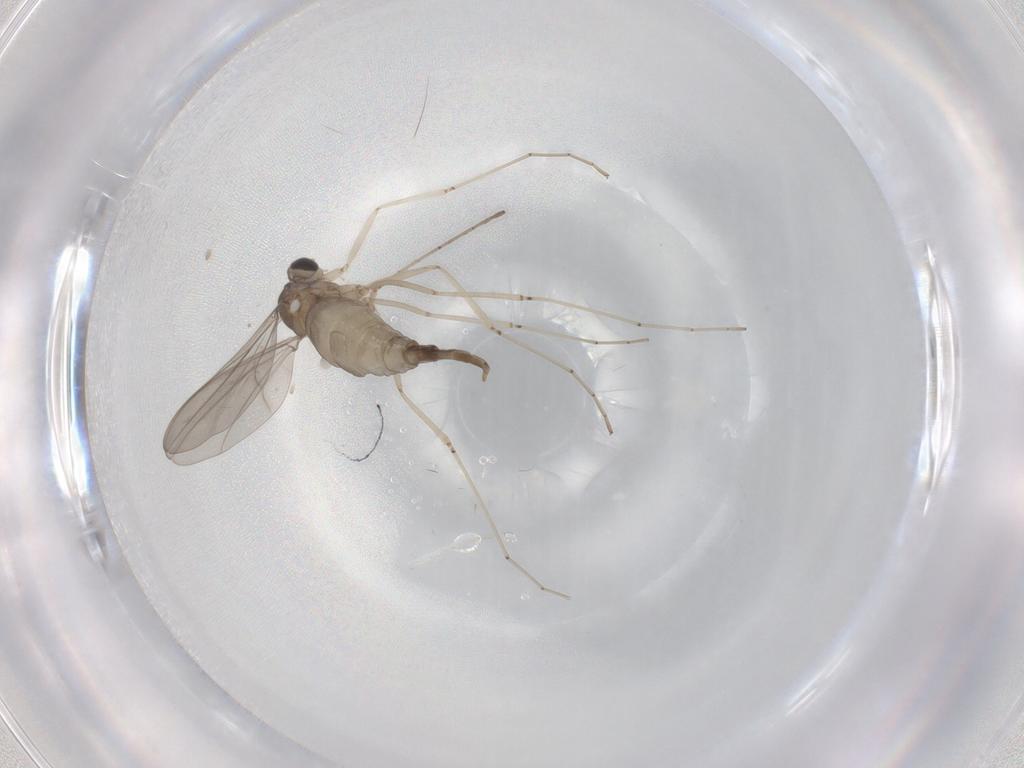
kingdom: Animalia
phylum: Arthropoda
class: Insecta
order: Diptera
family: Cecidomyiidae
